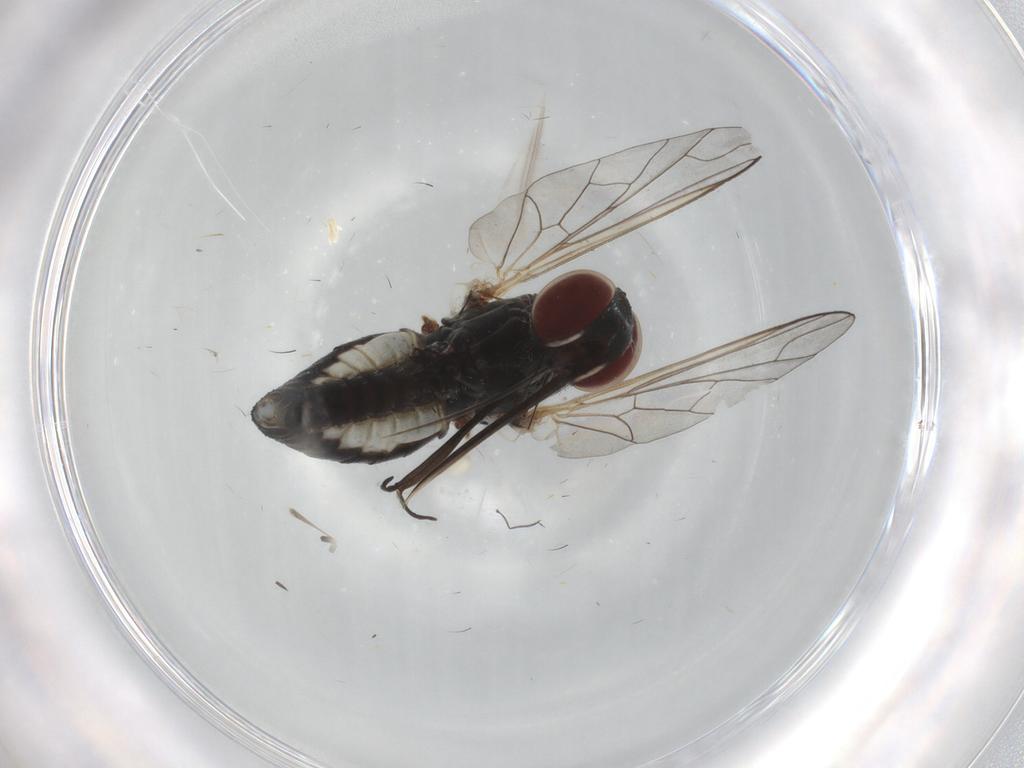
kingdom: Animalia
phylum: Arthropoda
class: Insecta
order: Diptera
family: Bombyliidae
